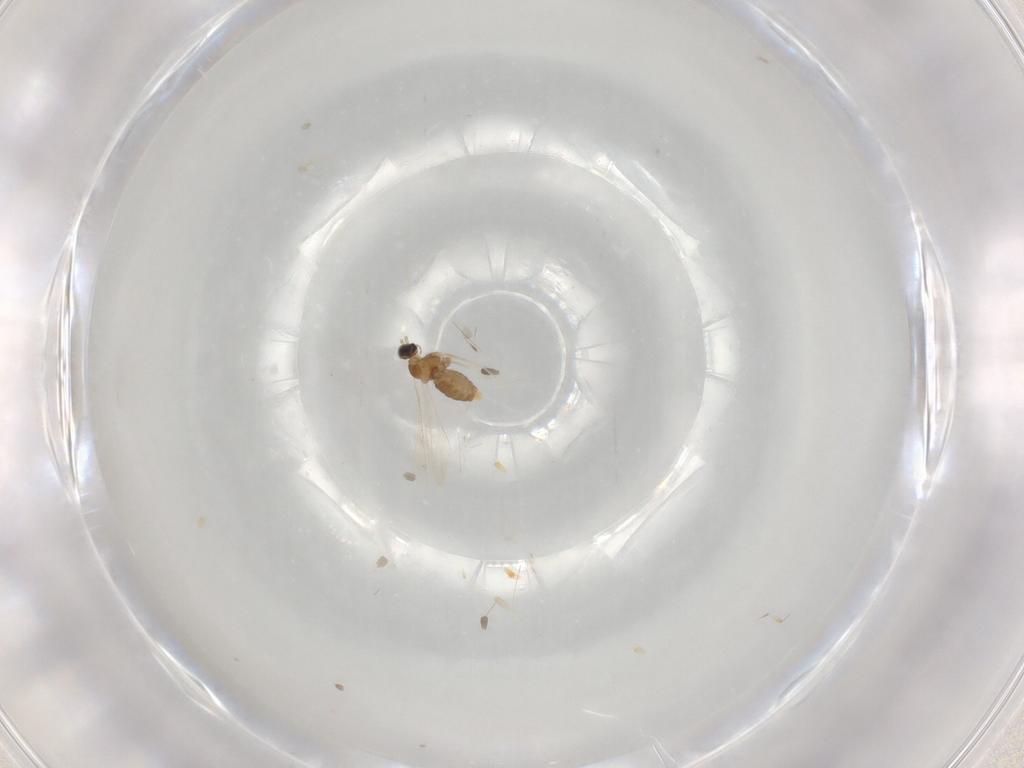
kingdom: Animalia
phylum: Arthropoda
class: Insecta
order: Diptera
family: Cecidomyiidae
